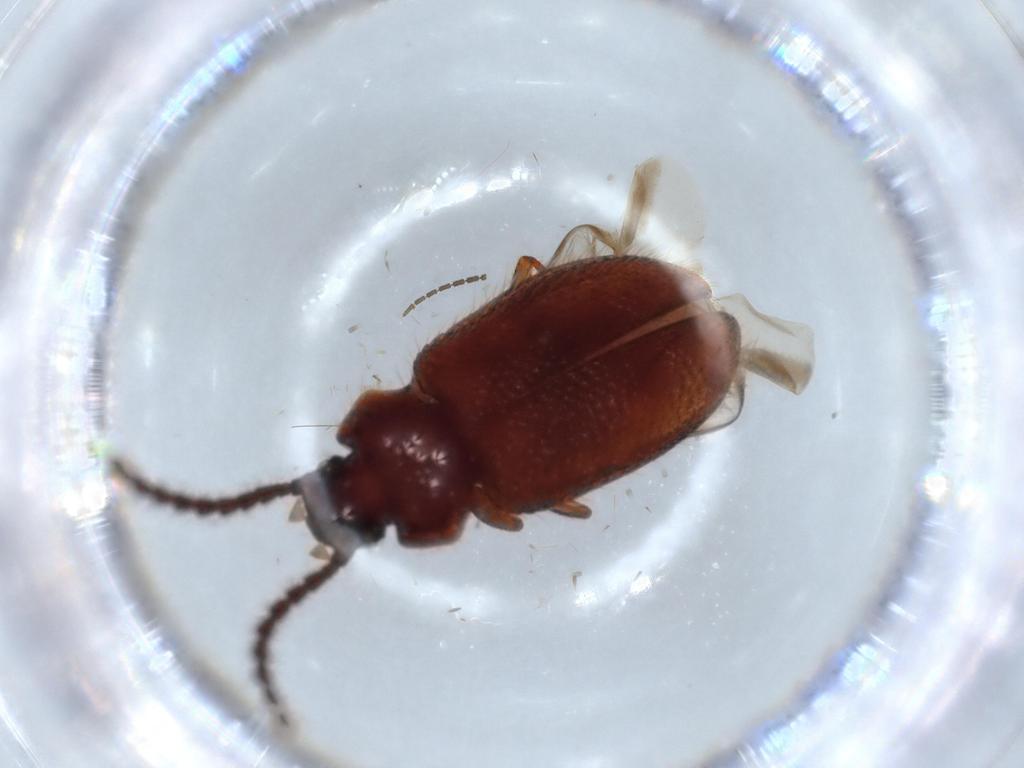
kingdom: Animalia
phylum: Arthropoda
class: Insecta
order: Coleoptera
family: Tenebrionidae
